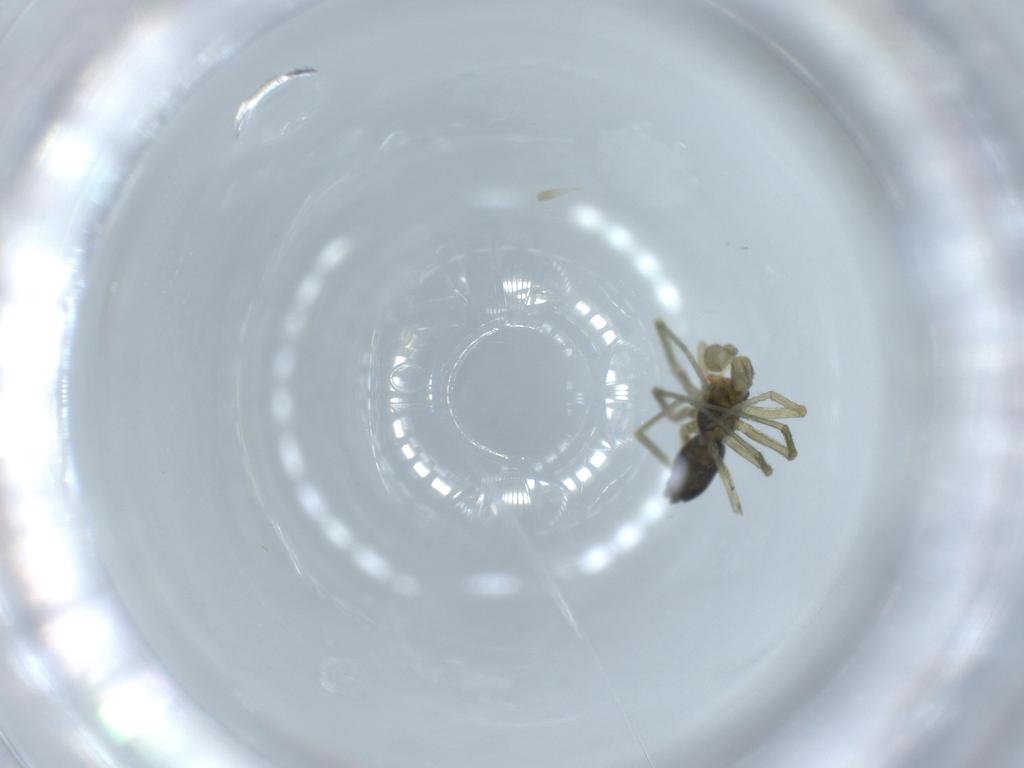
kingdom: Animalia
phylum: Arthropoda
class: Arachnida
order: Araneae
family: Linyphiidae
